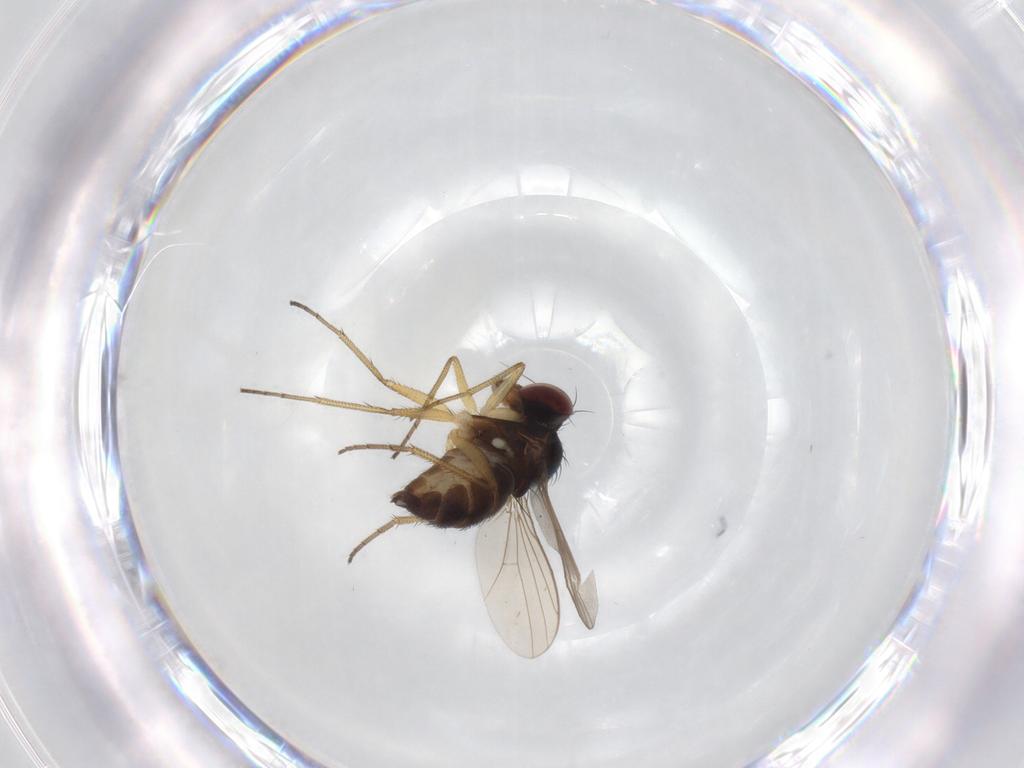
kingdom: Animalia
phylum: Arthropoda
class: Insecta
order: Diptera
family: Dolichopodidae
